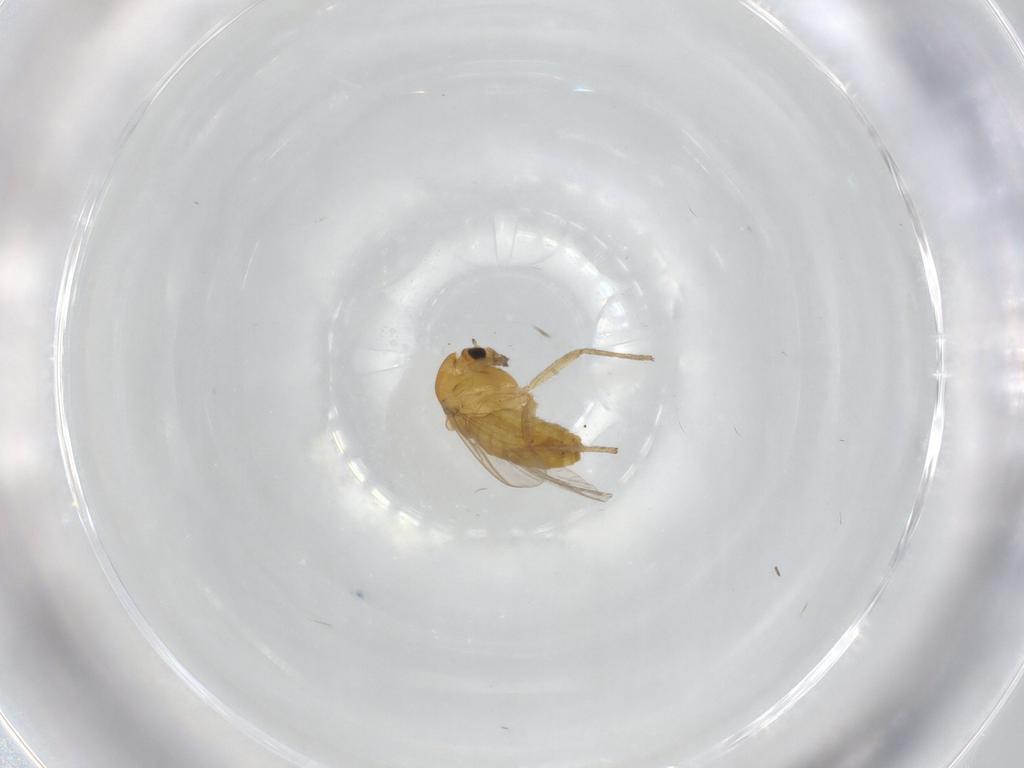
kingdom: Animalia
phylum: Arthropoda
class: Insecta
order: Diptera
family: Chironomidae
